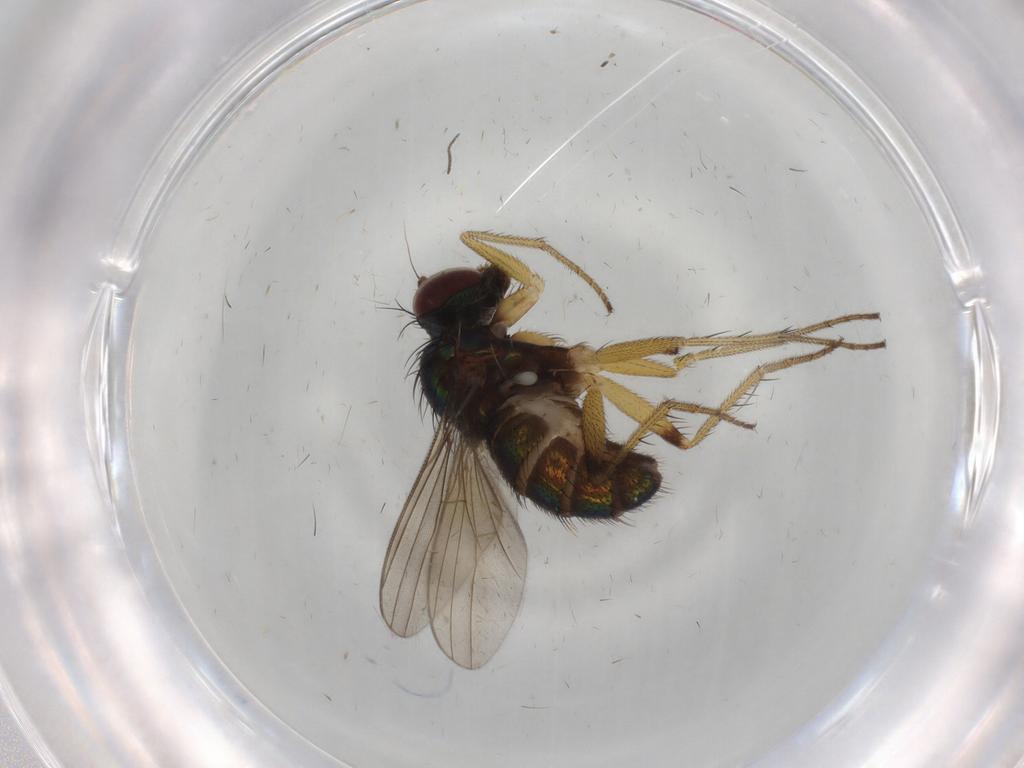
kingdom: Animalia
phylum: Arthropoda
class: Insecta
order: Diptera
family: Dolichopodidae
